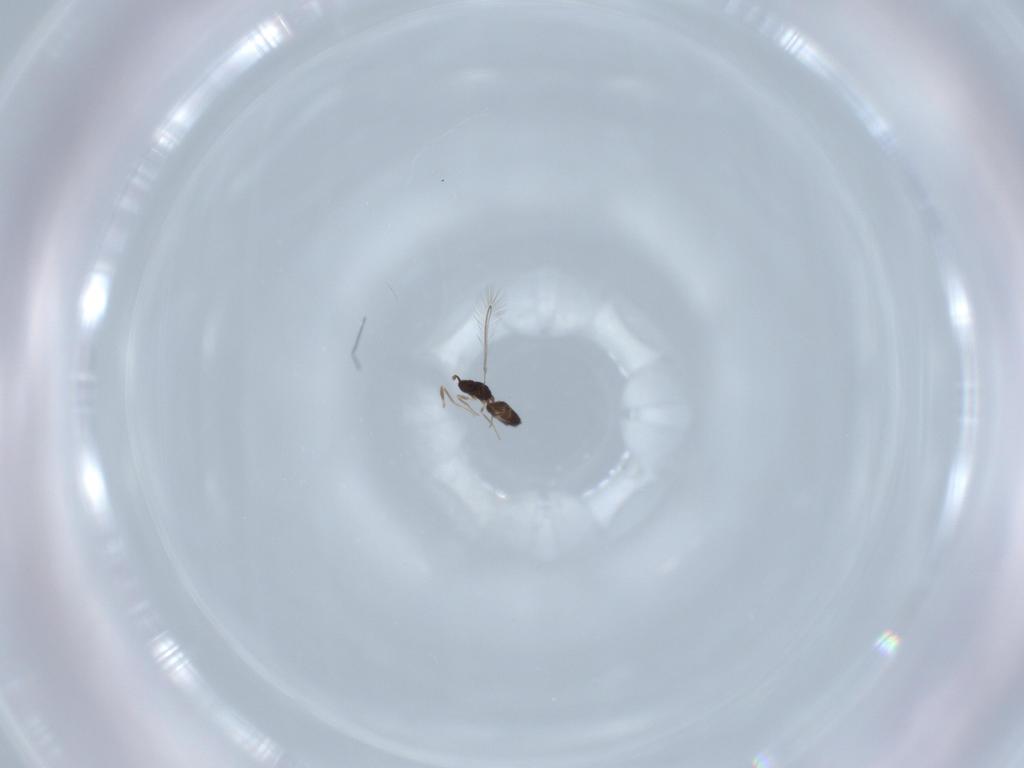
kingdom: Animalia
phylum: Arthropoda
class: Insecta
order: Hymenoptera
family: Mymaridae
